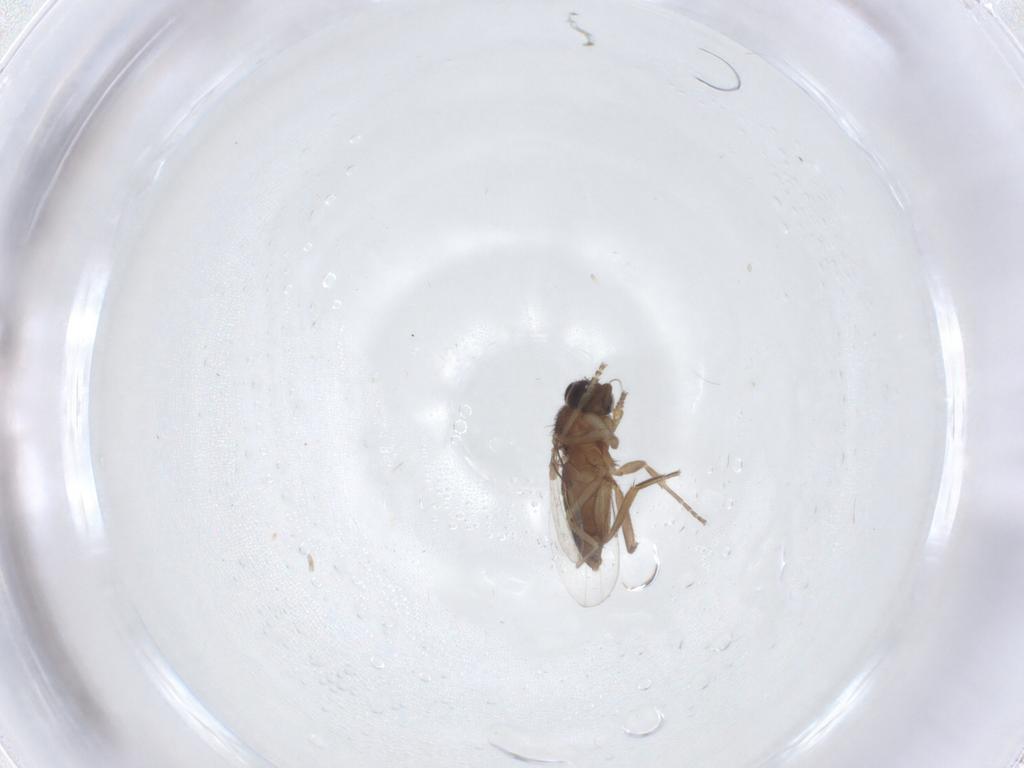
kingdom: Animalia
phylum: Arthropoda
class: Insecta
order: Diptera
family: Phoridae
